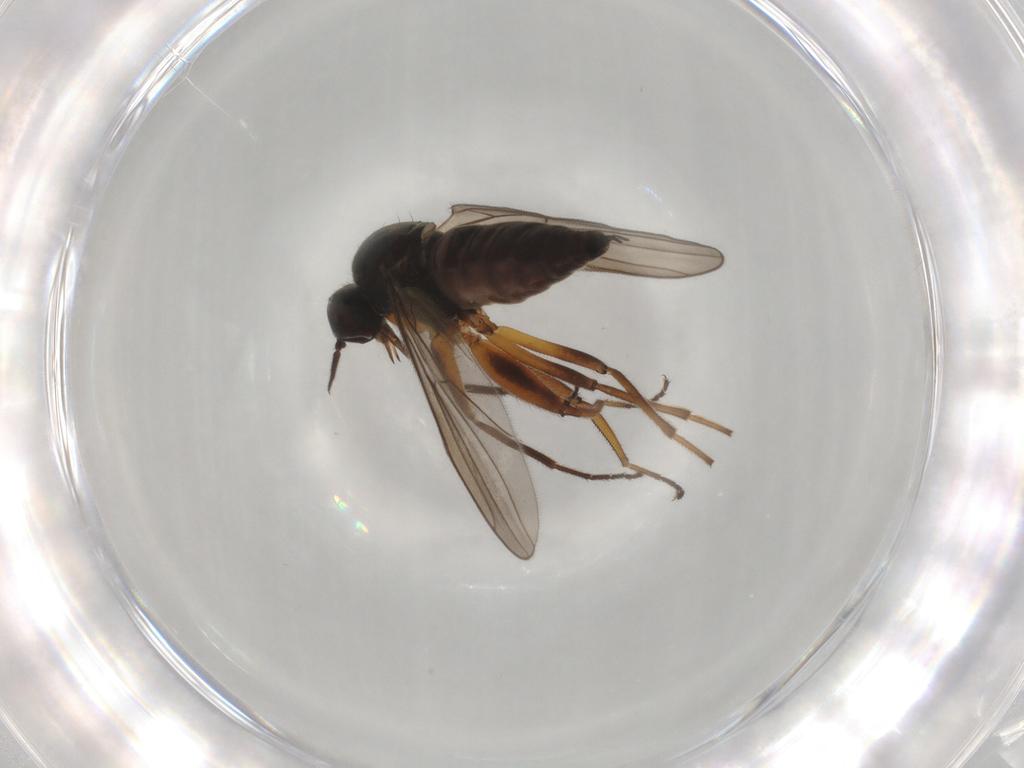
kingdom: Animalia
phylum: Arthropoda
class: Insecta
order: Diptera
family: Hybotidae
